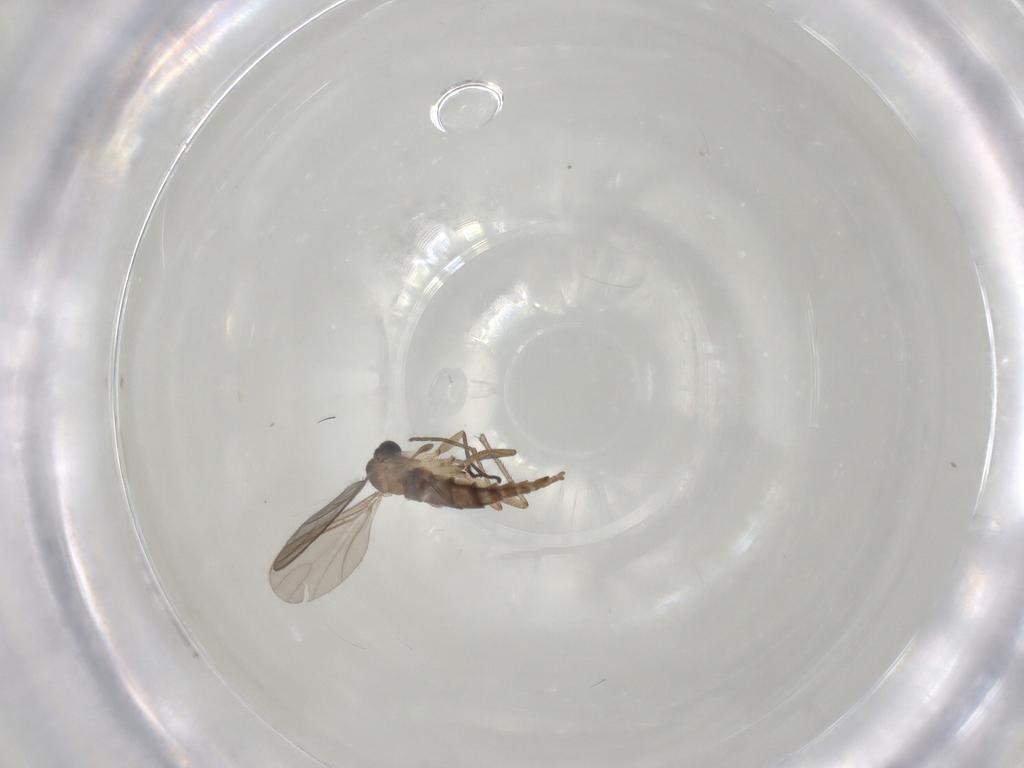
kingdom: Animalia
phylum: Arthropoda
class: Insecta
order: Diptera
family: Sciaridae
